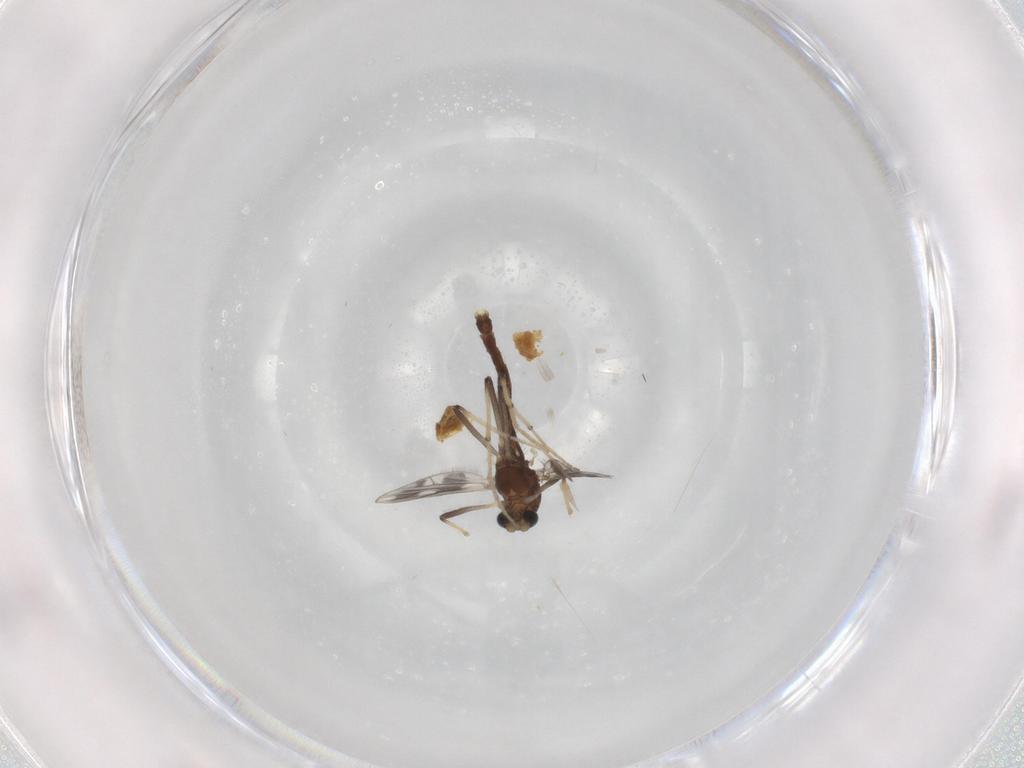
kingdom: Animalia
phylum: Arthropoda
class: Insecta
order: Diptera
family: Chironomidae
